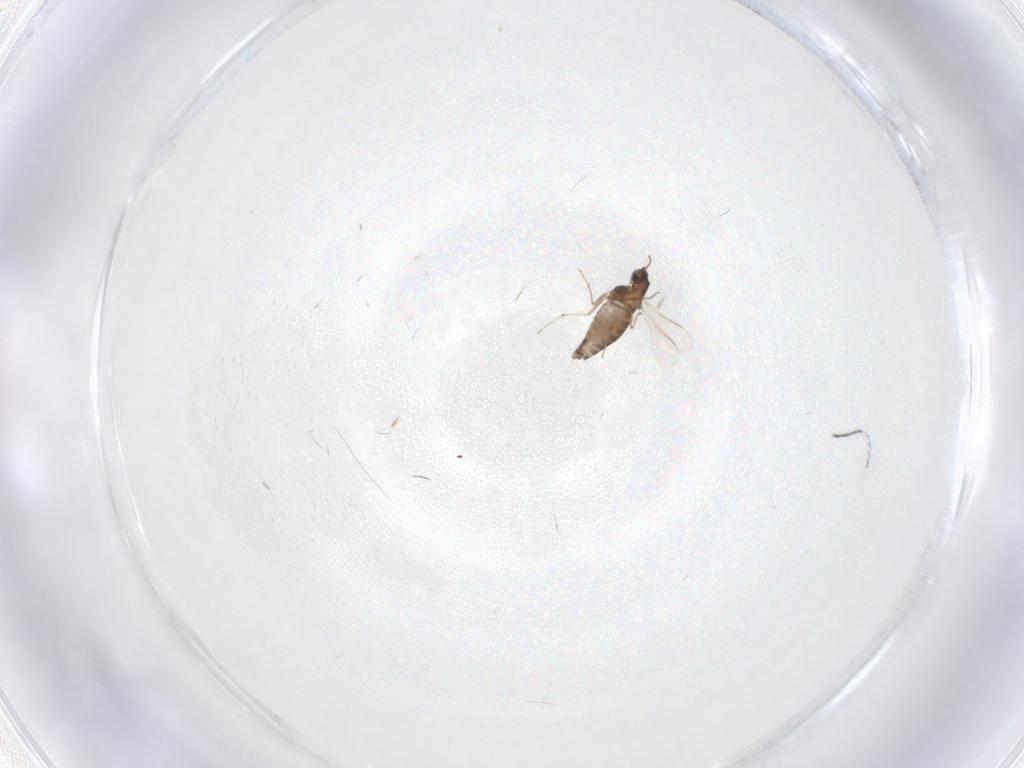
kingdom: Animalia
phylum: Arthropoda
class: Insecta
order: Diptera
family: Chironomidae
